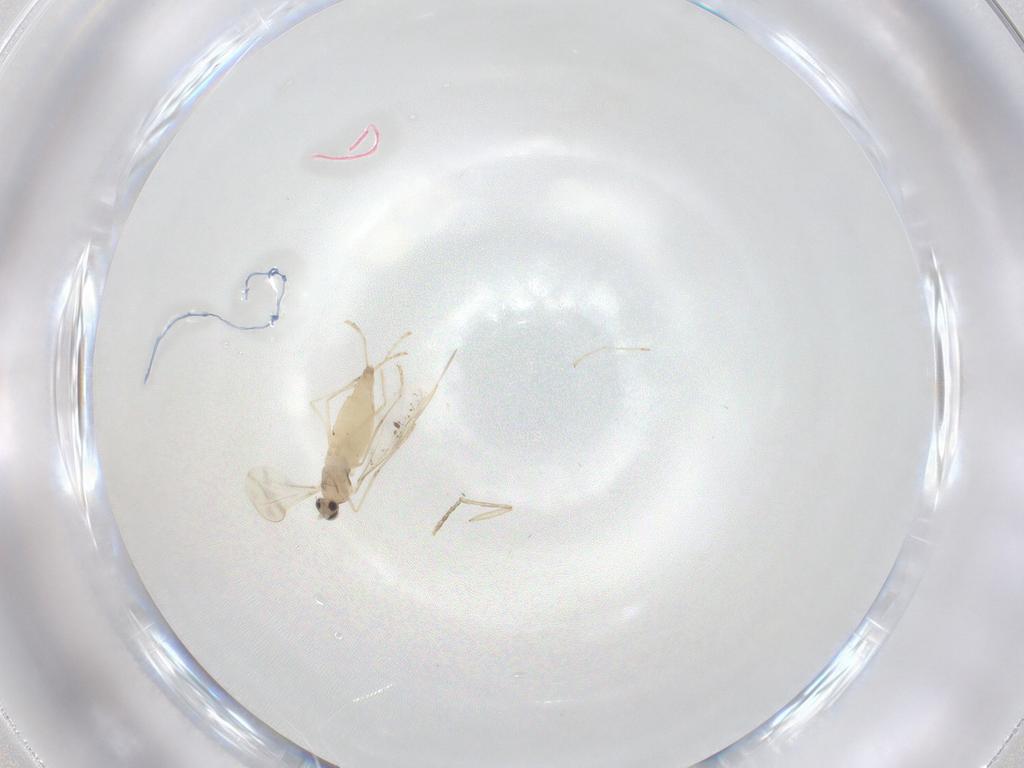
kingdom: Animalia
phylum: Arthropoda
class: Insecta
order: Diptera
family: Cecidomyiidae
